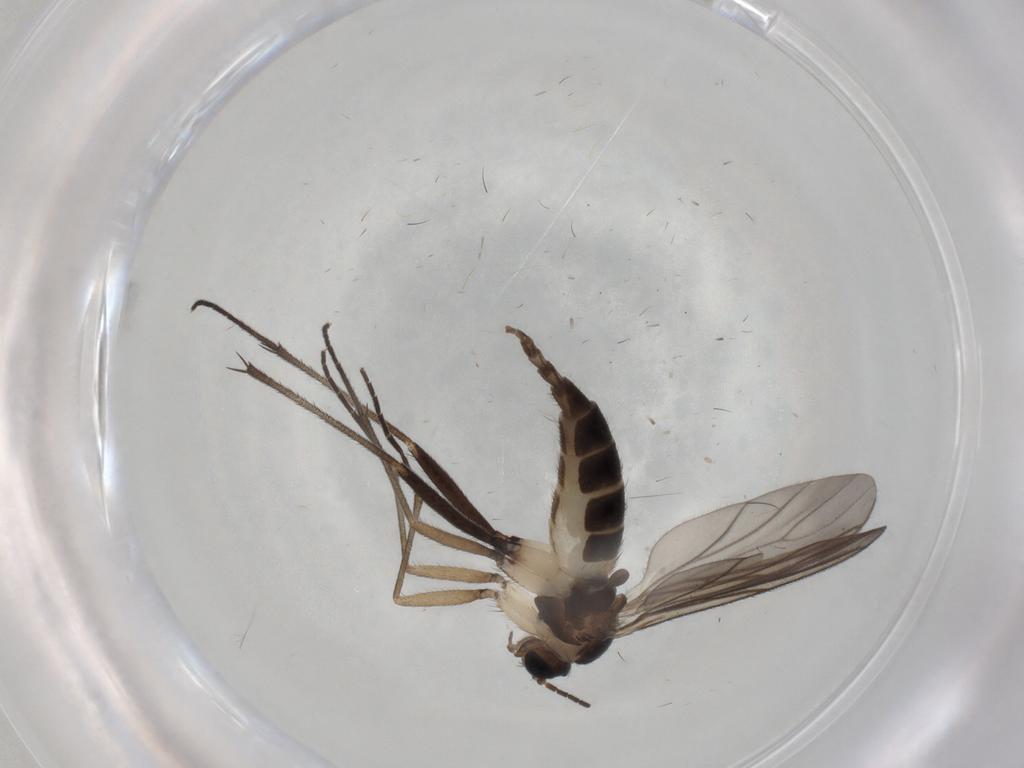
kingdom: Animalia
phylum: Arthropoda
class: Insecta
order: Diptera
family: Sciaridae
